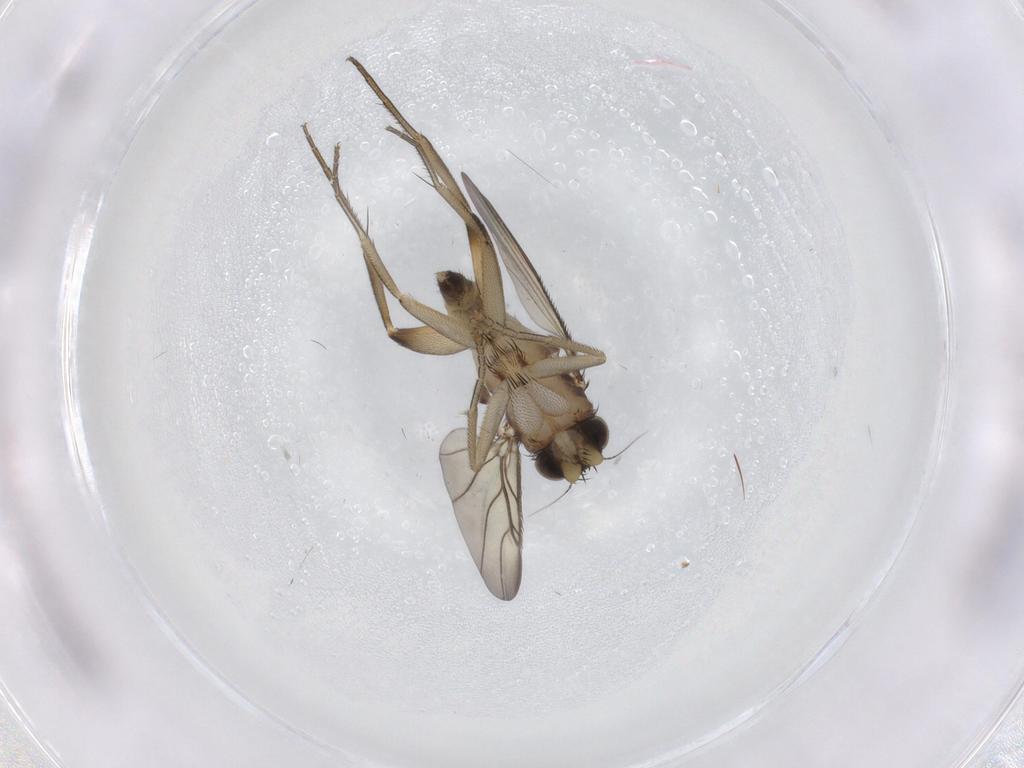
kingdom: Animalia
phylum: Arthropoda
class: Insecta
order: Diptera
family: Phoridae
